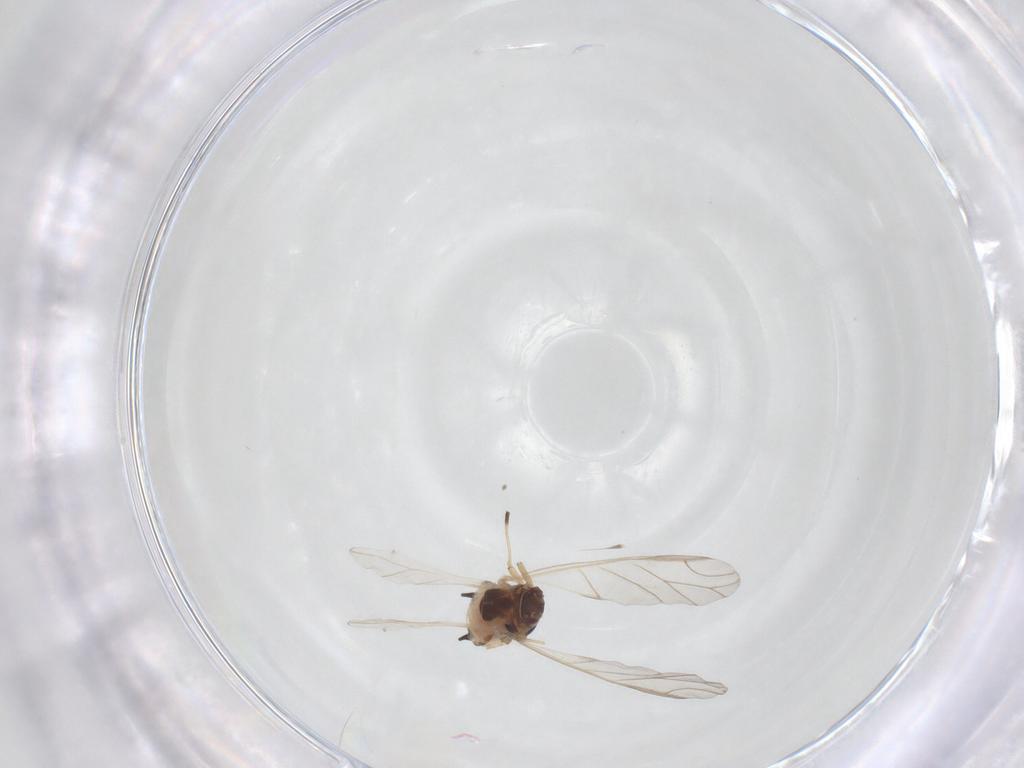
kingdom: Animalia
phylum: Arthropoda
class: Insecta
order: Hemiptera
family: Aphididae
